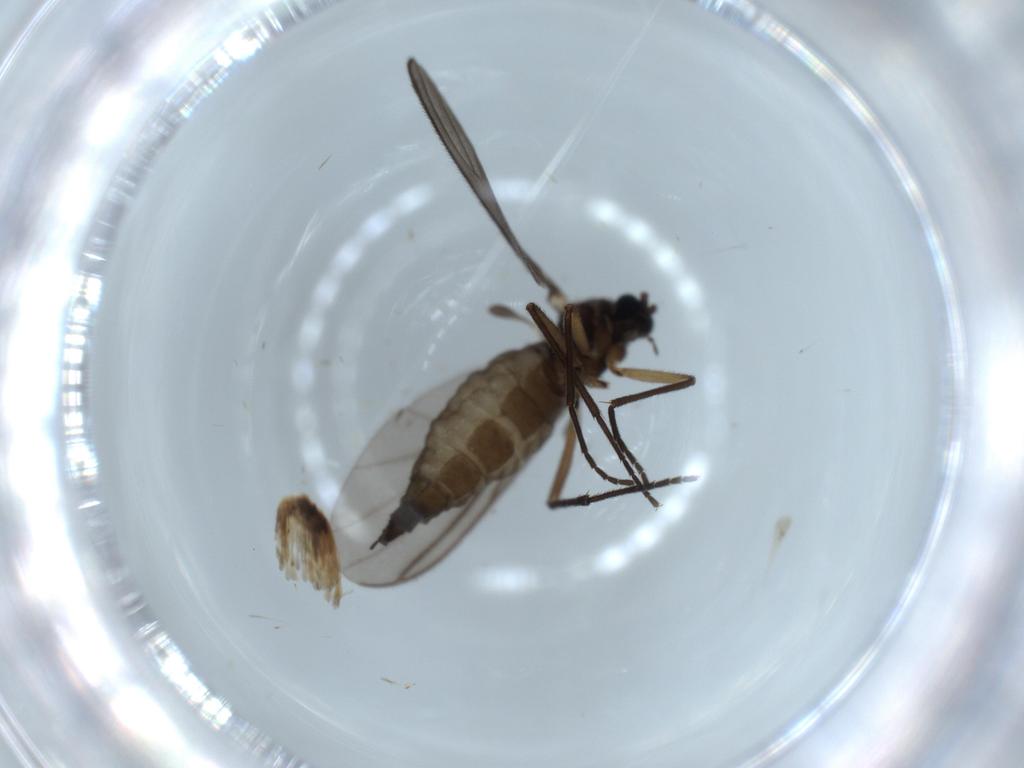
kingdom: Animalia
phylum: Arthropoda
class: Insecta
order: Diptera
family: Sciaridae
